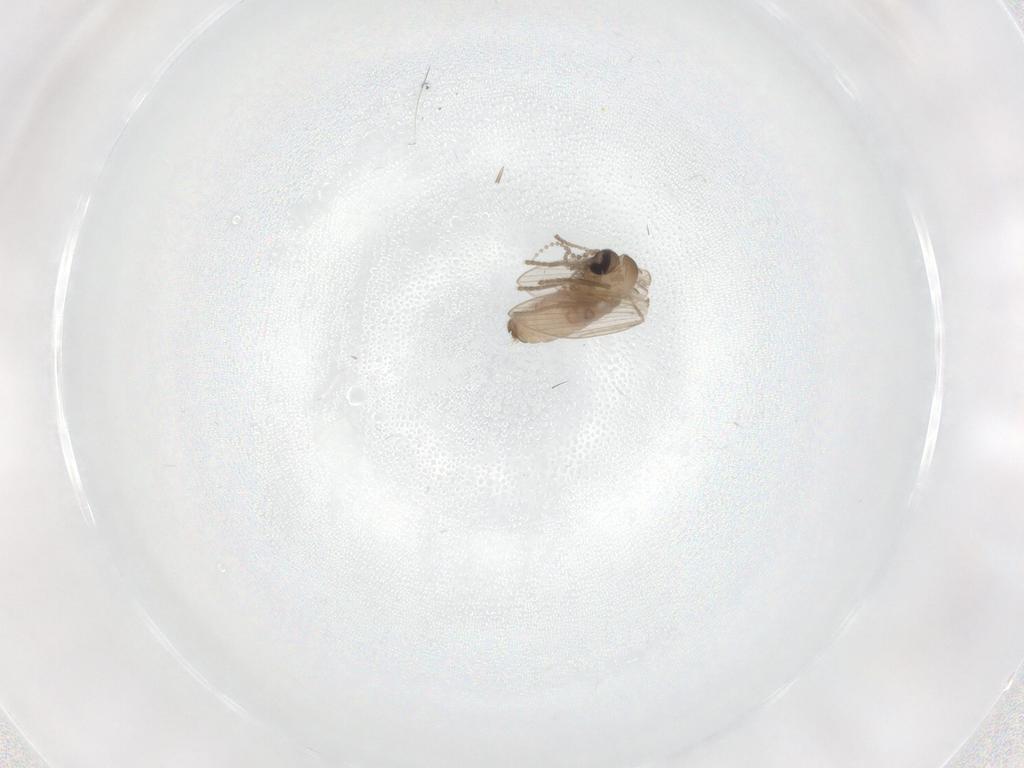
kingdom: Animalia
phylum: Arthropoda
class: Insecta
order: Diptera
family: Psychodidae
